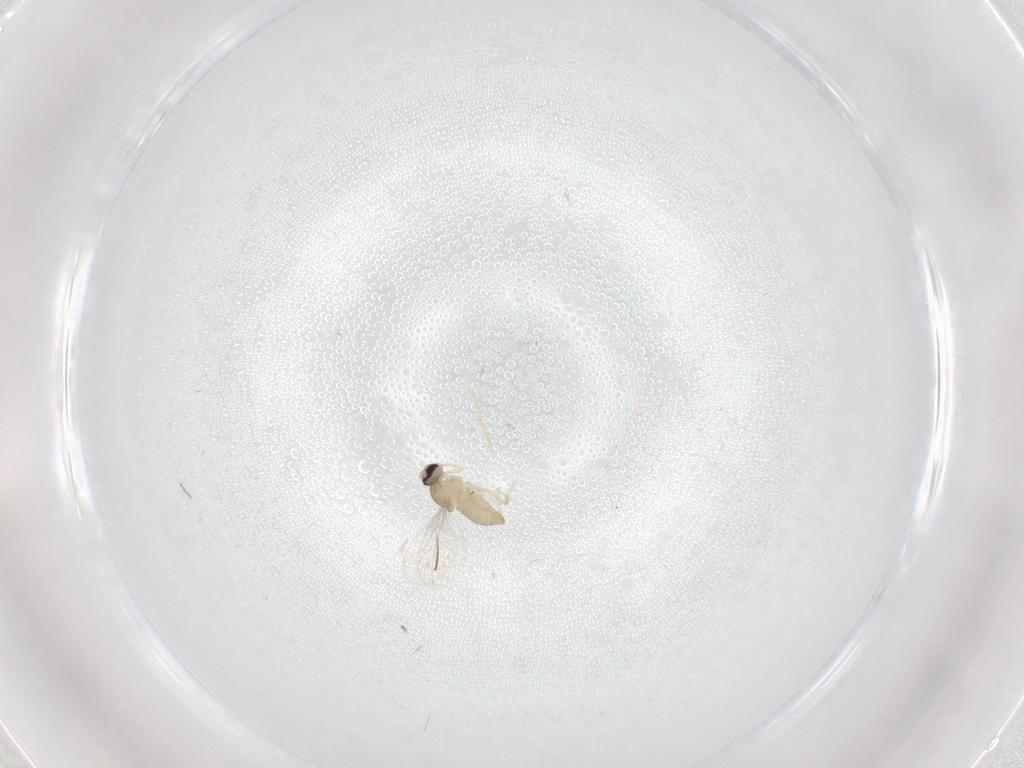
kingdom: Animalia
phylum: Arthropoda
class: Insecta
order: Diptera
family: Cecidomyiidae
